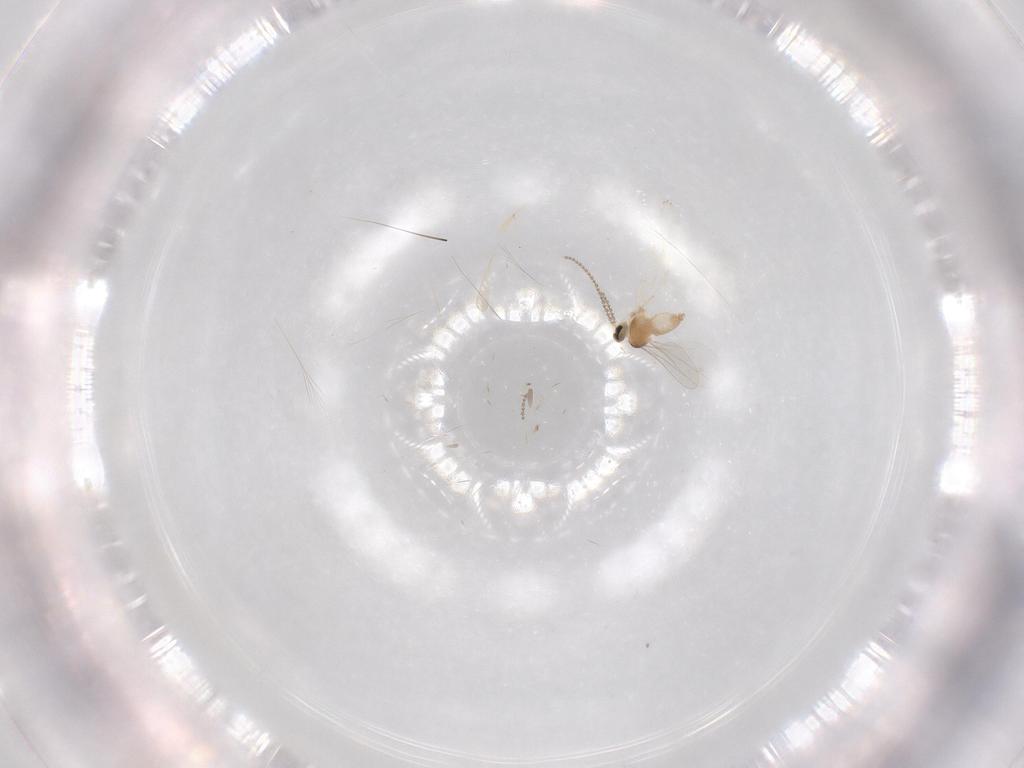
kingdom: Animalia
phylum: Arthropoda
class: Insecta
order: Diptera
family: Cecidomyiidae
